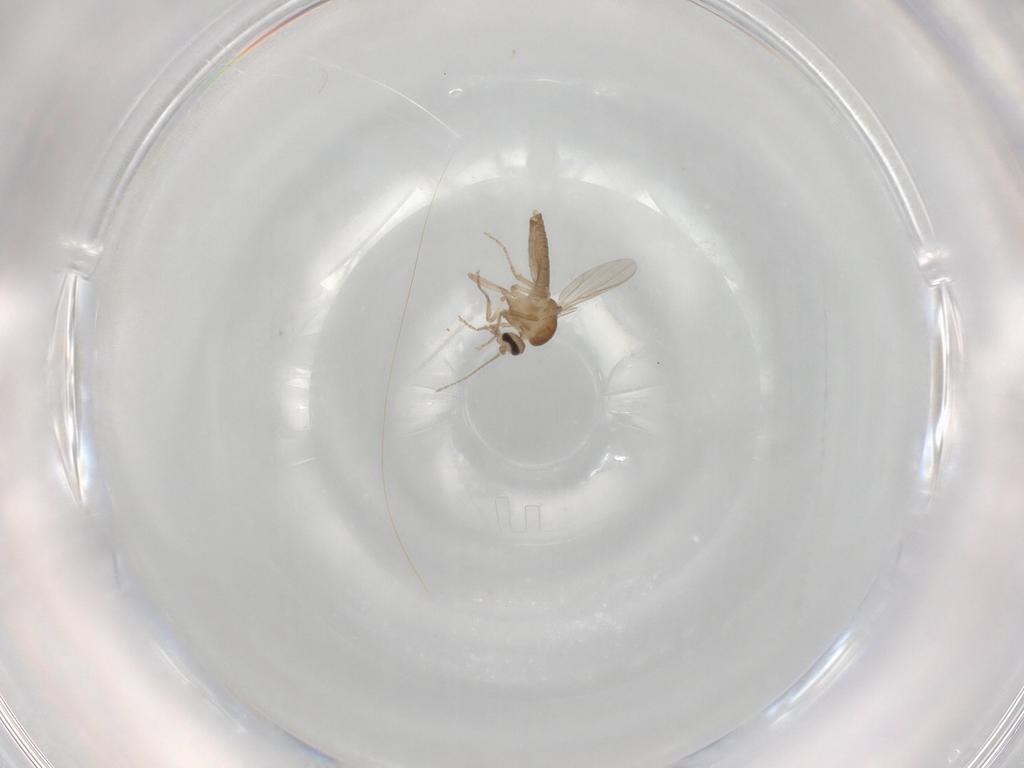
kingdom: Animalia
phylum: Arthropoda
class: Insecta
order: Diptera
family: Ceratopogonidae
